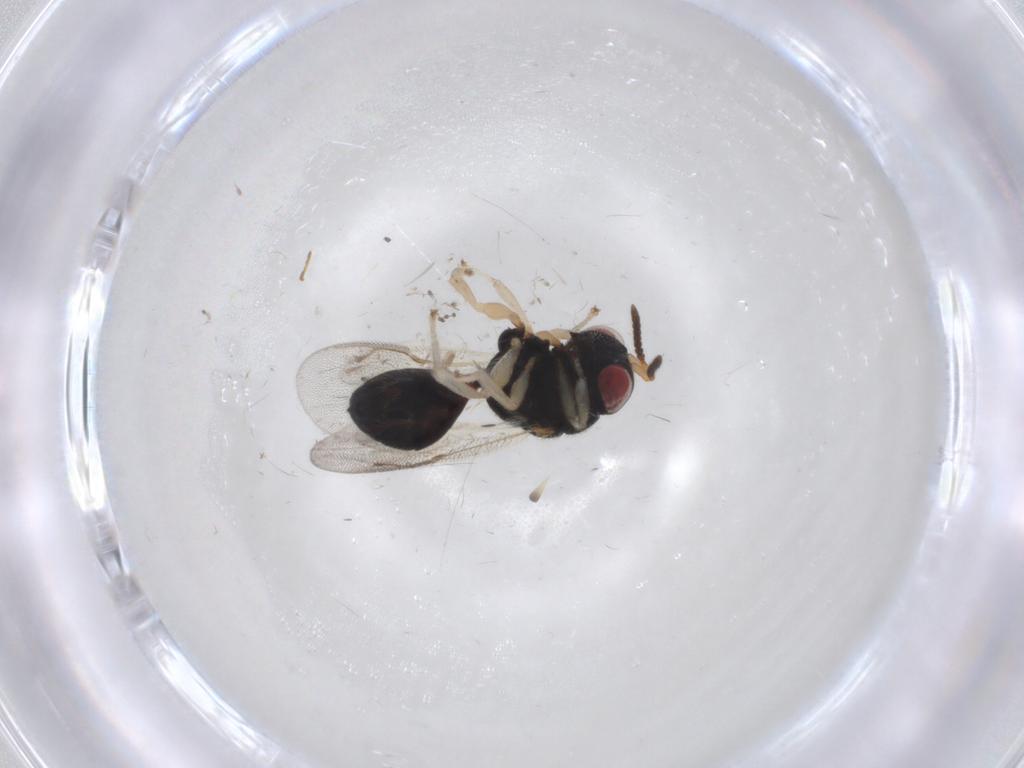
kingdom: Animalia
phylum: Arthropoda
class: Insecta
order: Hymenoptera
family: Eurytomidae
